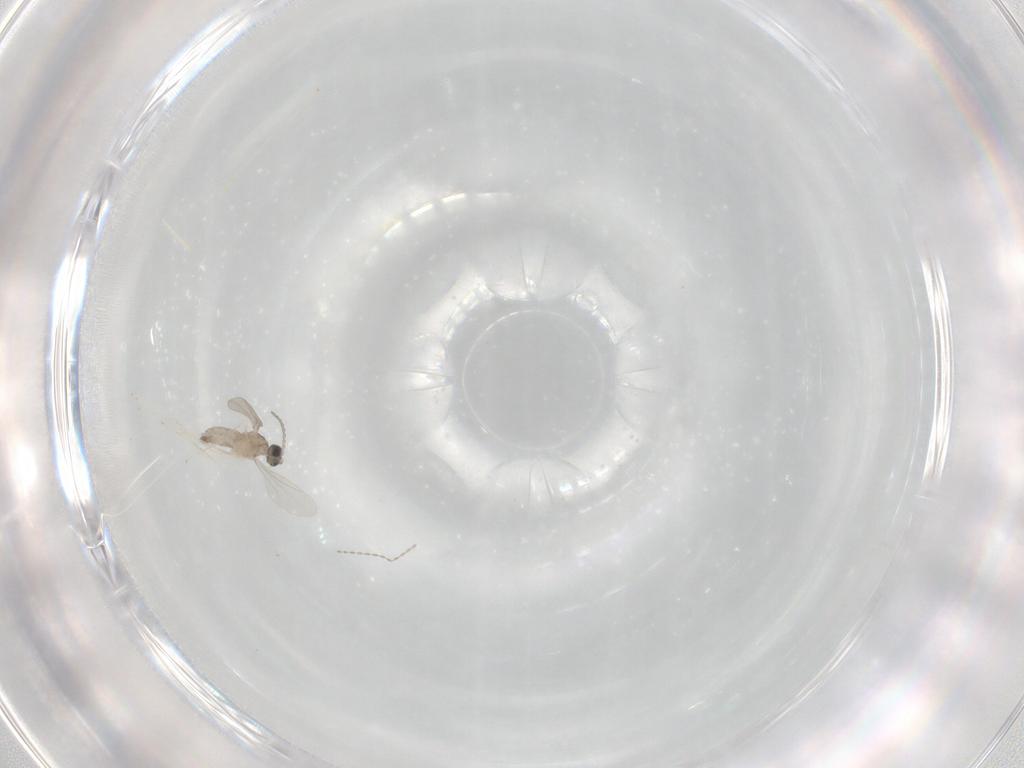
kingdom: Animalia
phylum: Arthropoda
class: Insecta
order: Diptera
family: Cecidomyiidae
